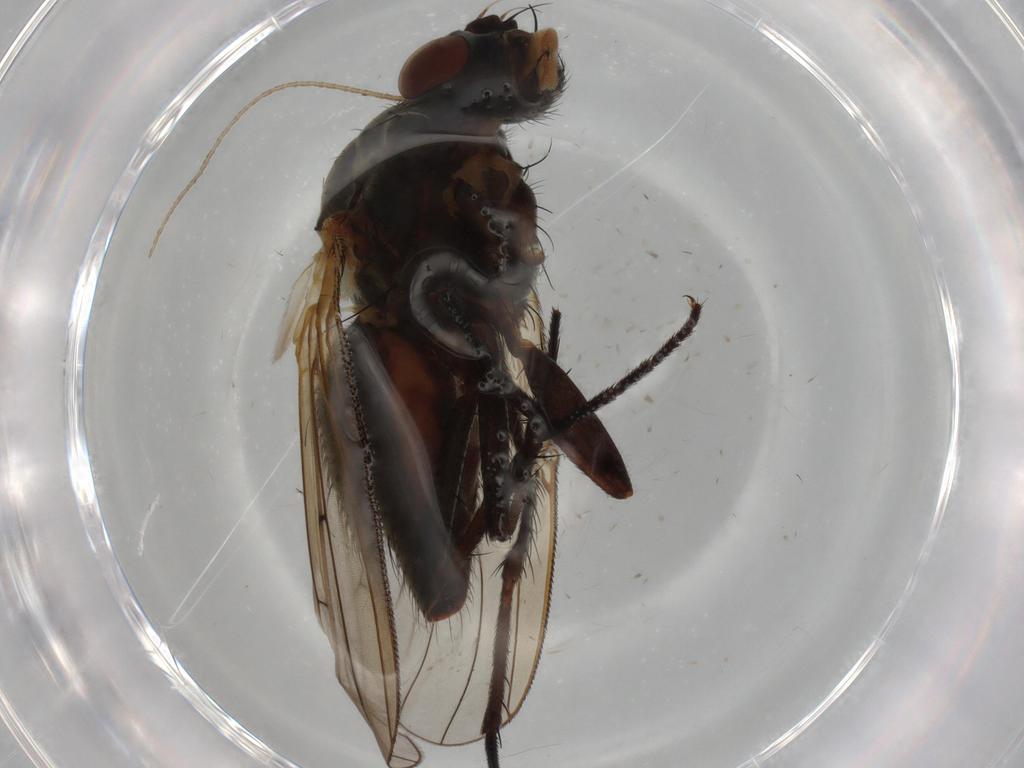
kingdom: Animalia
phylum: Arthropoda
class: Insecta
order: Diptera
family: Anthomyiidae
